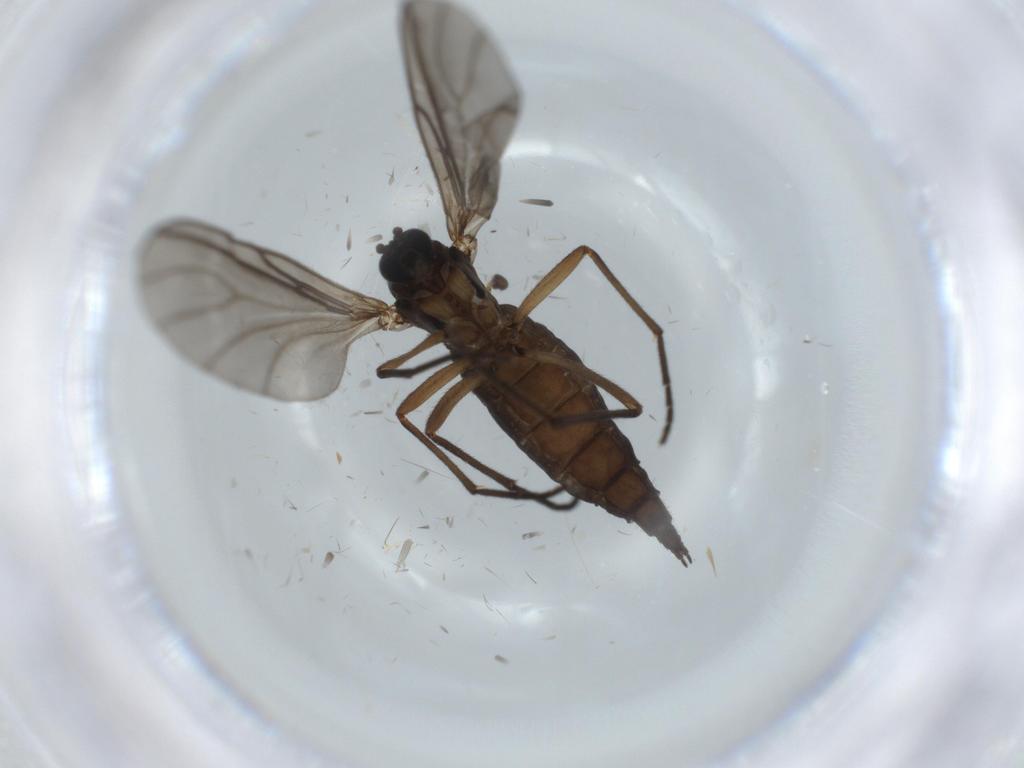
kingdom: Animalia
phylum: Arthropoda
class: Insecta
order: Diptera
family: Sciaridae
